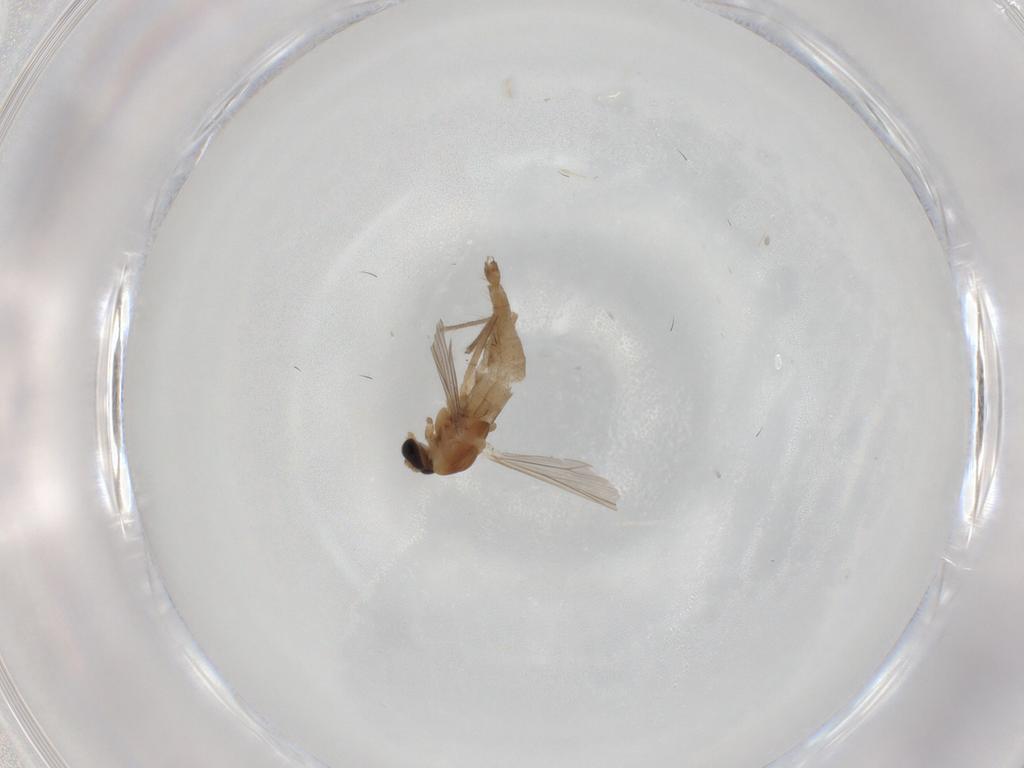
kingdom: Animalia
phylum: Arthropoda
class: Insecta
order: Diptera
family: Chironomidae
